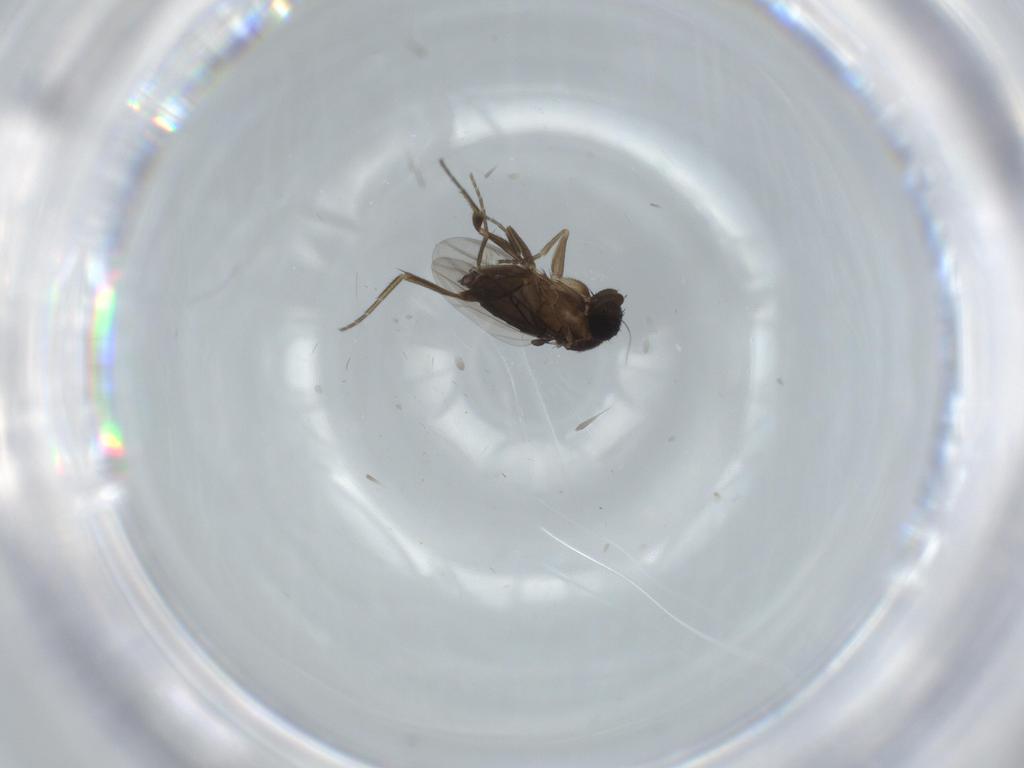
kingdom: Animalia
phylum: Arthropoda
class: Insecta
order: Diptera
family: Phoridae
